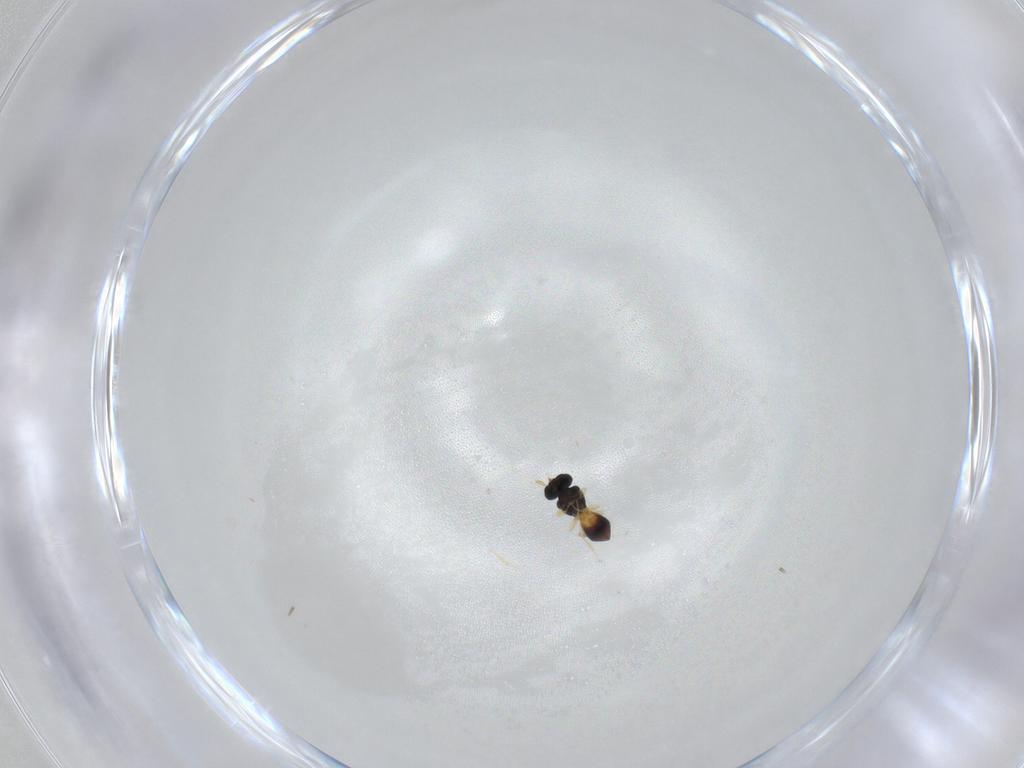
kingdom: Animalia
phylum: Arthropoda
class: Insecta
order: Hymenoptera
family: Scelionidae
